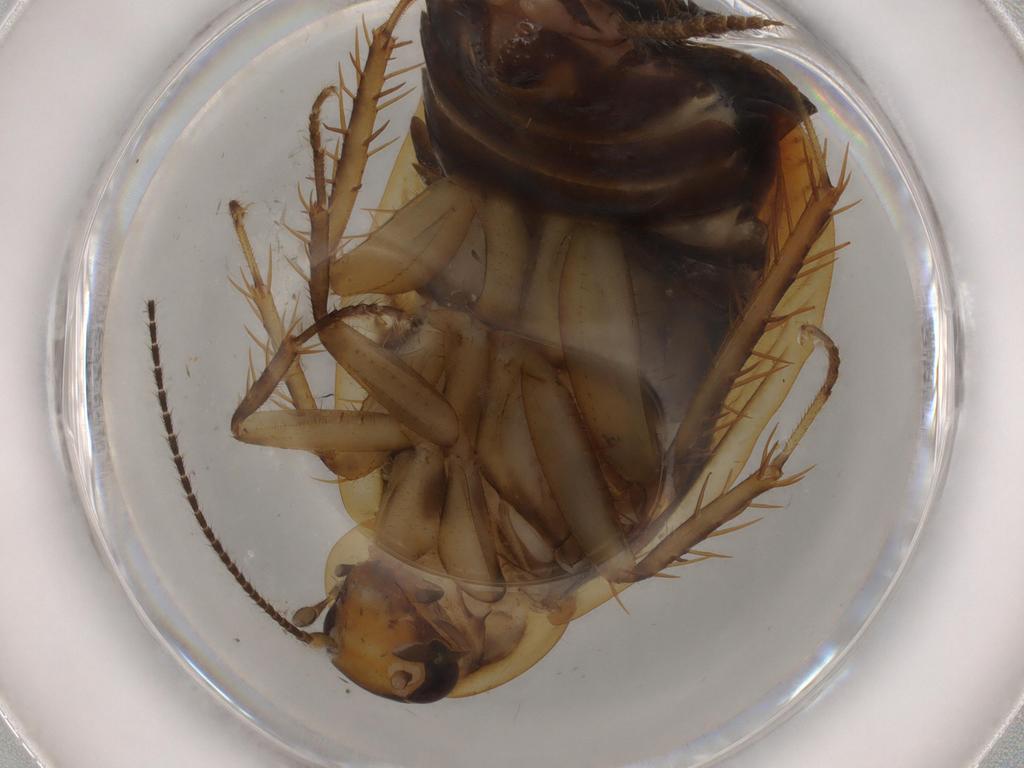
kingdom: Animalia
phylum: Arthropoda
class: Insecta
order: Blattodea
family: Ectobiidae
